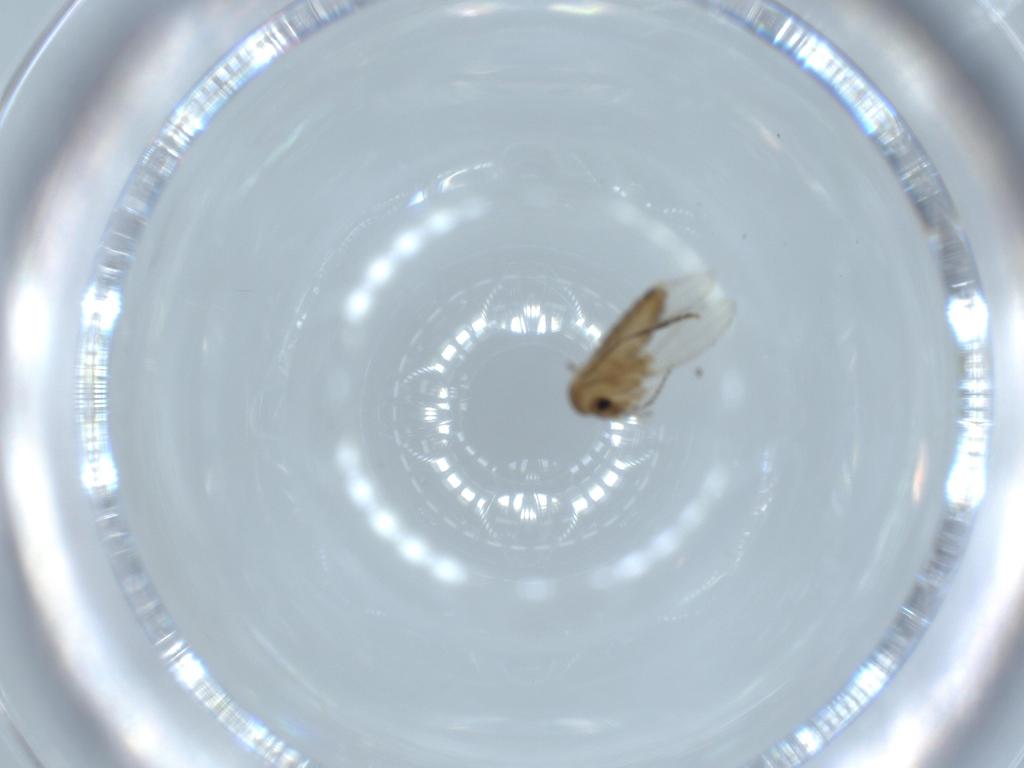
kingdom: Animalia
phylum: Arthropoda
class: Insecta
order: Diptera
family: Psychodidae
